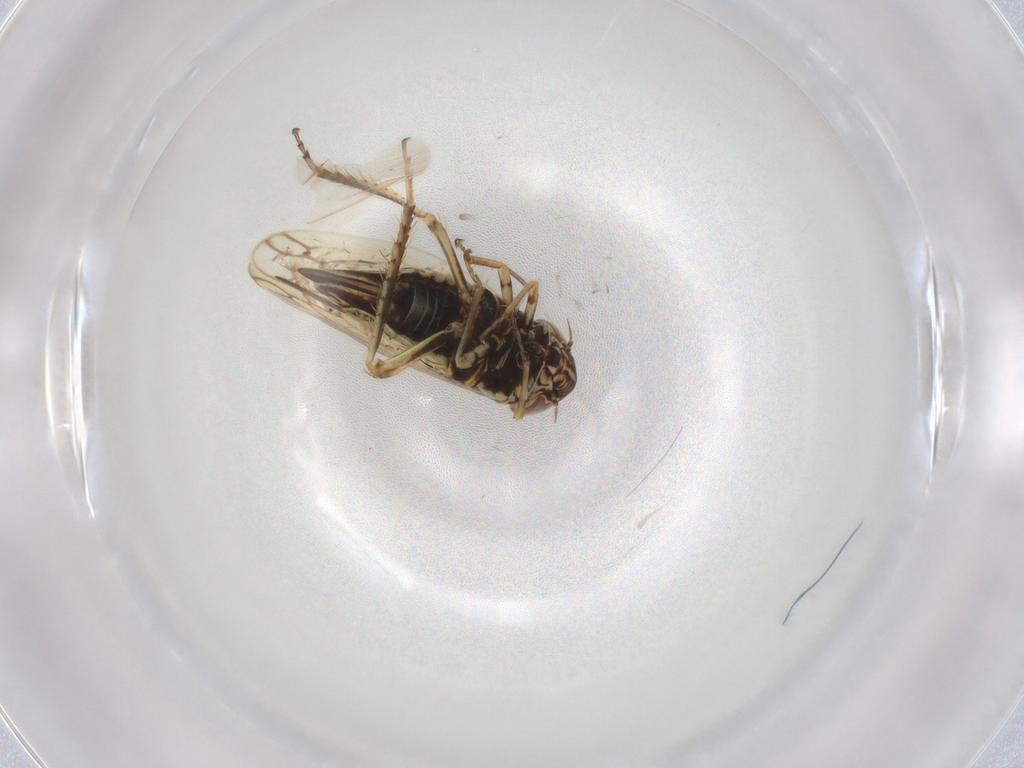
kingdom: Animalia
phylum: Arthropoda
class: Insecta
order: Hemiptera
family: Cicadellidae
